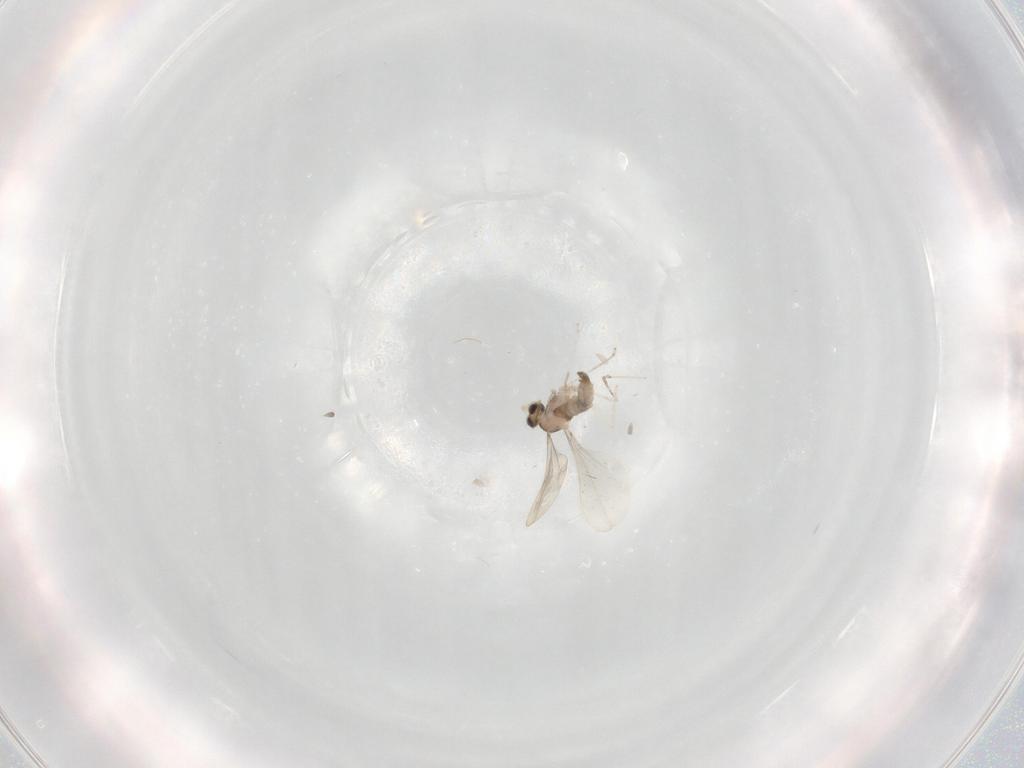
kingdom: Animalia
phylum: Arthropoda
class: Insecta
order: Diptera
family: Cecidomyiidae
